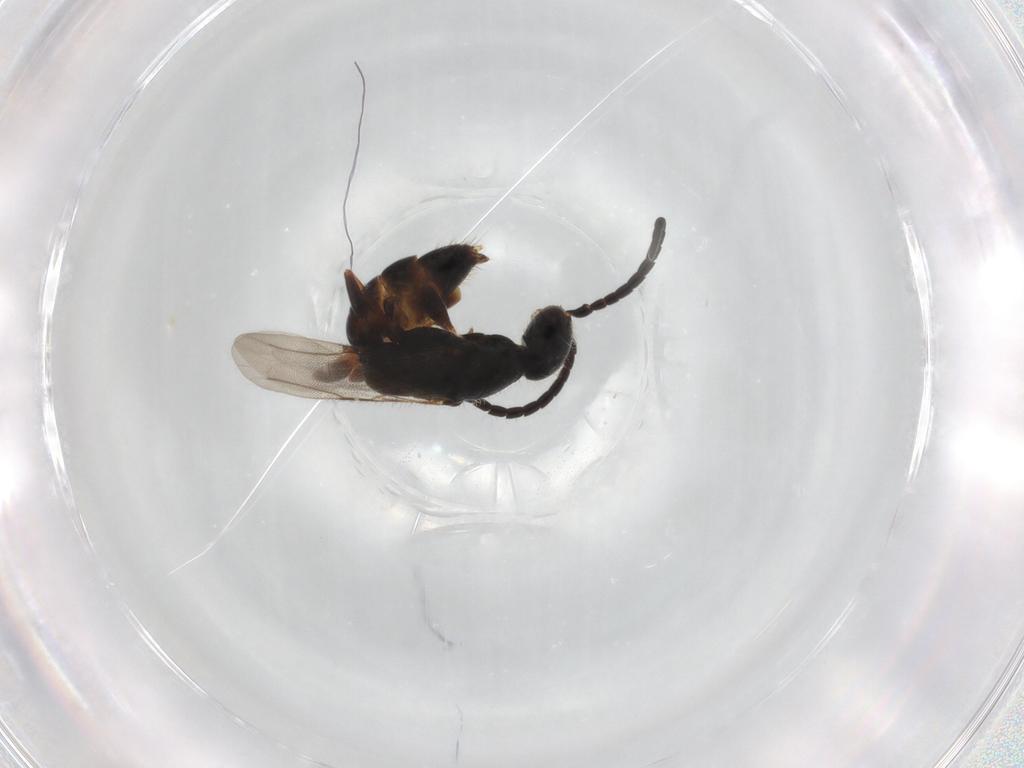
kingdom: Animalia
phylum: Arthropoda
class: Insecta
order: Hymenoptera
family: Bethylidae
